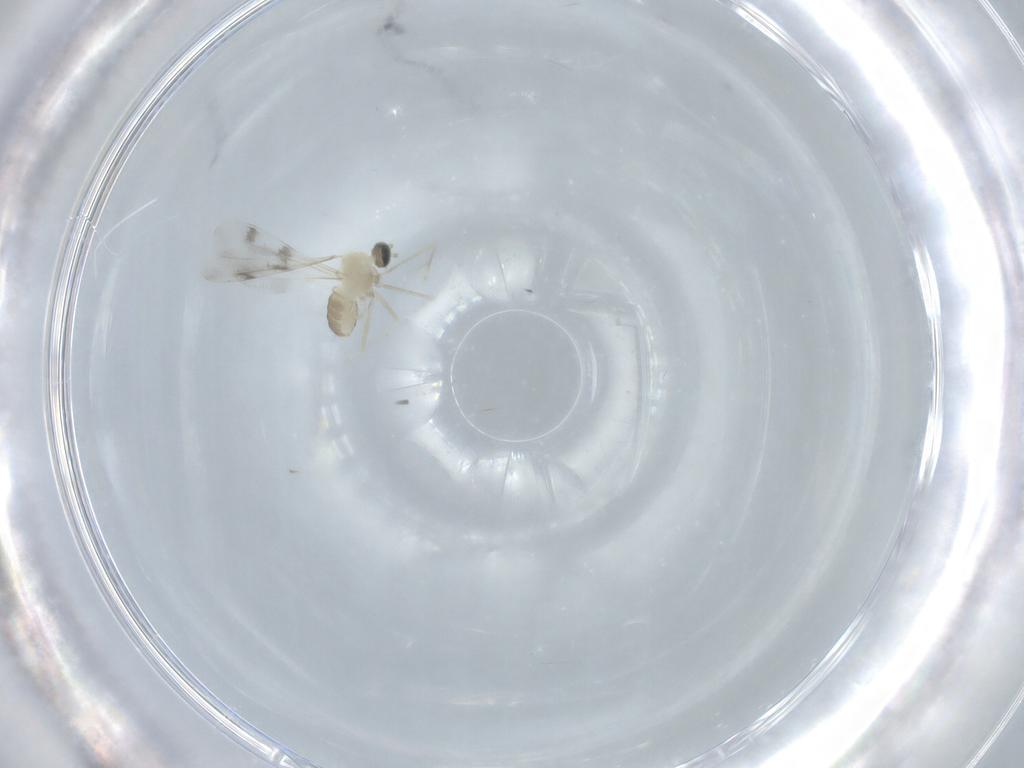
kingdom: Animalia
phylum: Arthropoda
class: Insecta
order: Diptera
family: Cecidomyiidae
